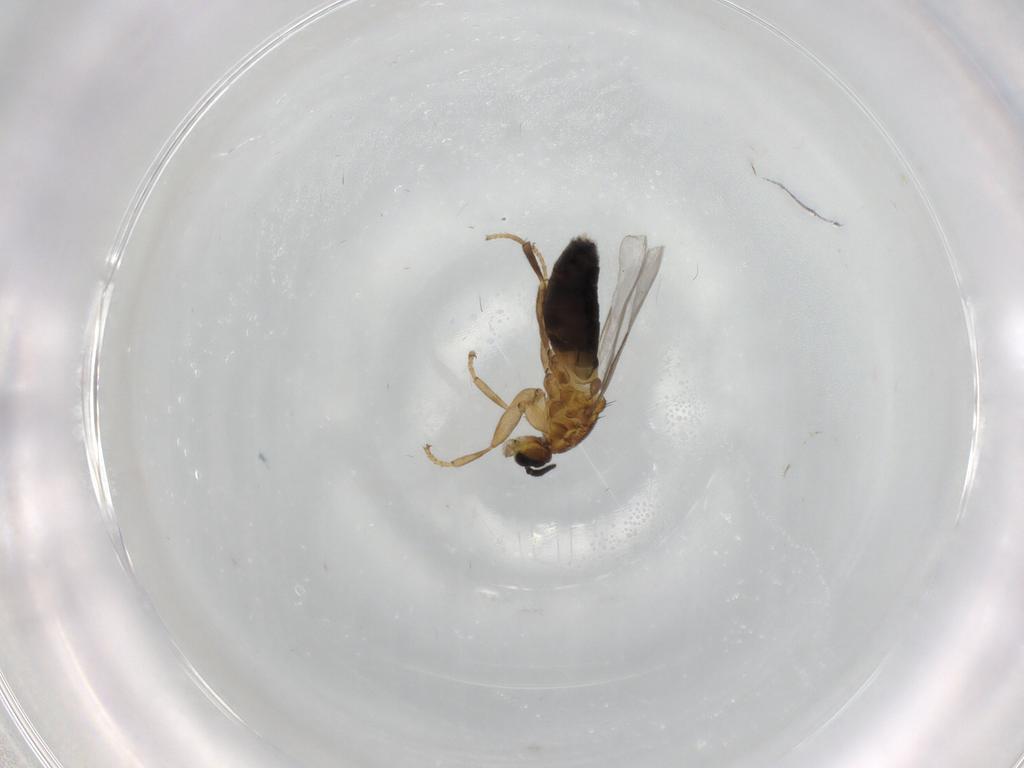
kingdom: Animalia
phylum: Arthropoda
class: Insecta
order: Diptera
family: Scatopsidae
